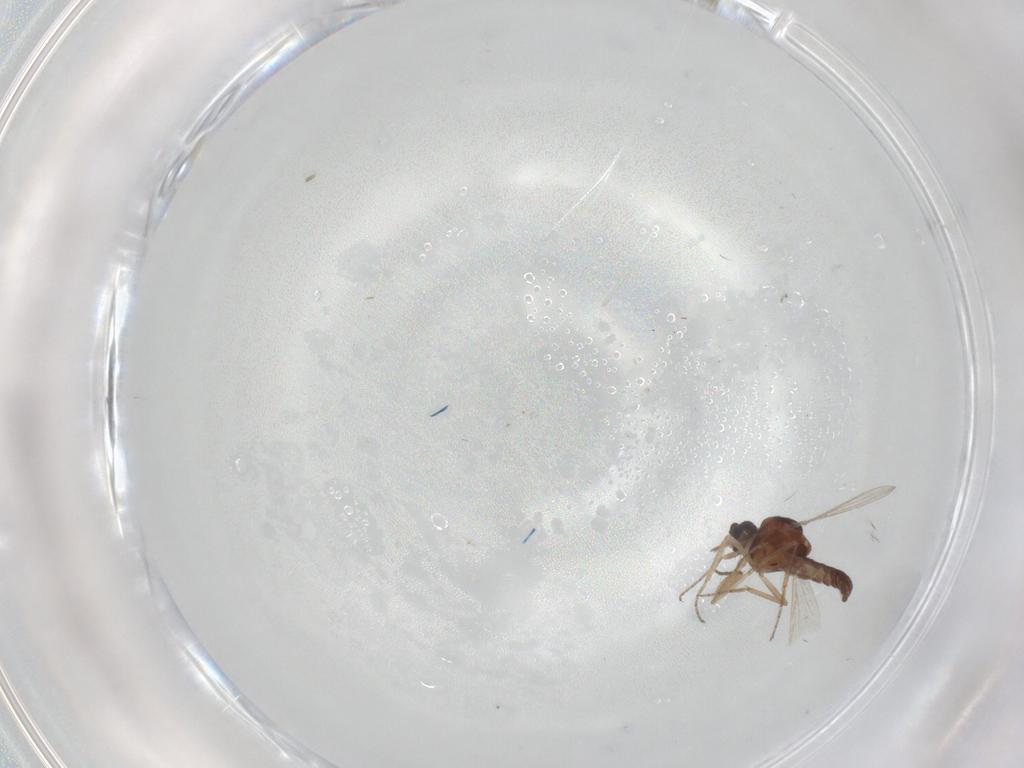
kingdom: Animalia
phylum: Arthropoda
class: Insecta
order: Diptera
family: Ceratopogonidae
